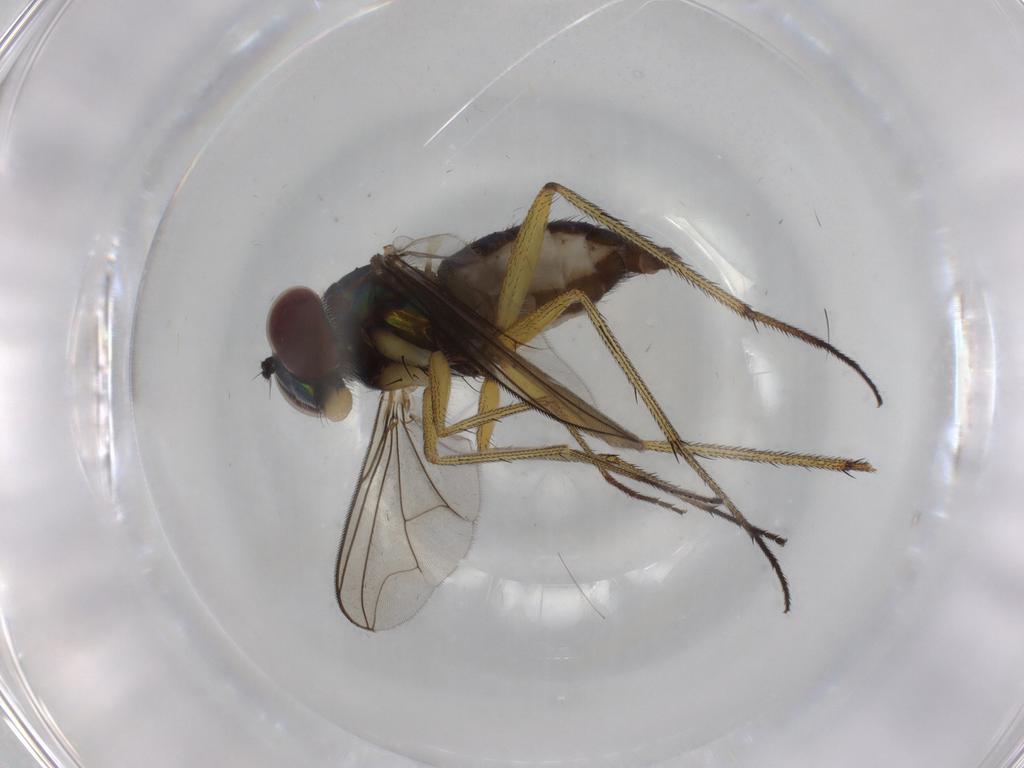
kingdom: Animalia
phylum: Arthropoda
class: Insecta
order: Diptera
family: Dolichopodidae
